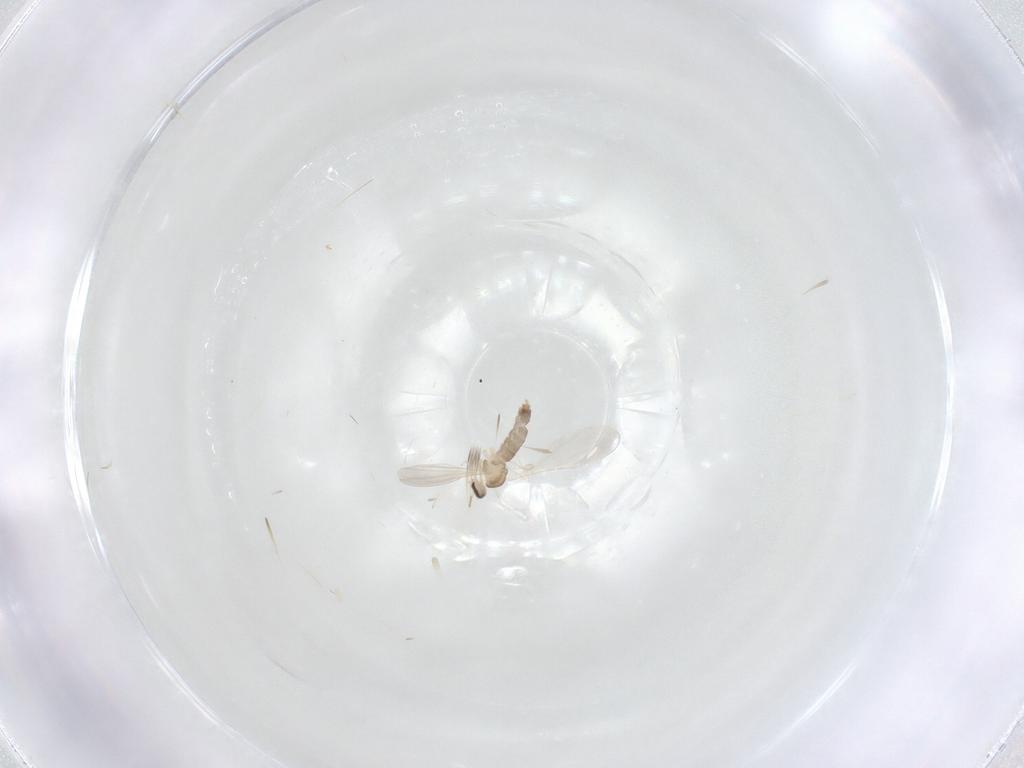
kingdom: Animalia
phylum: Arthropoda
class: Insecta
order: Diptera
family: Cecidomyiidae
